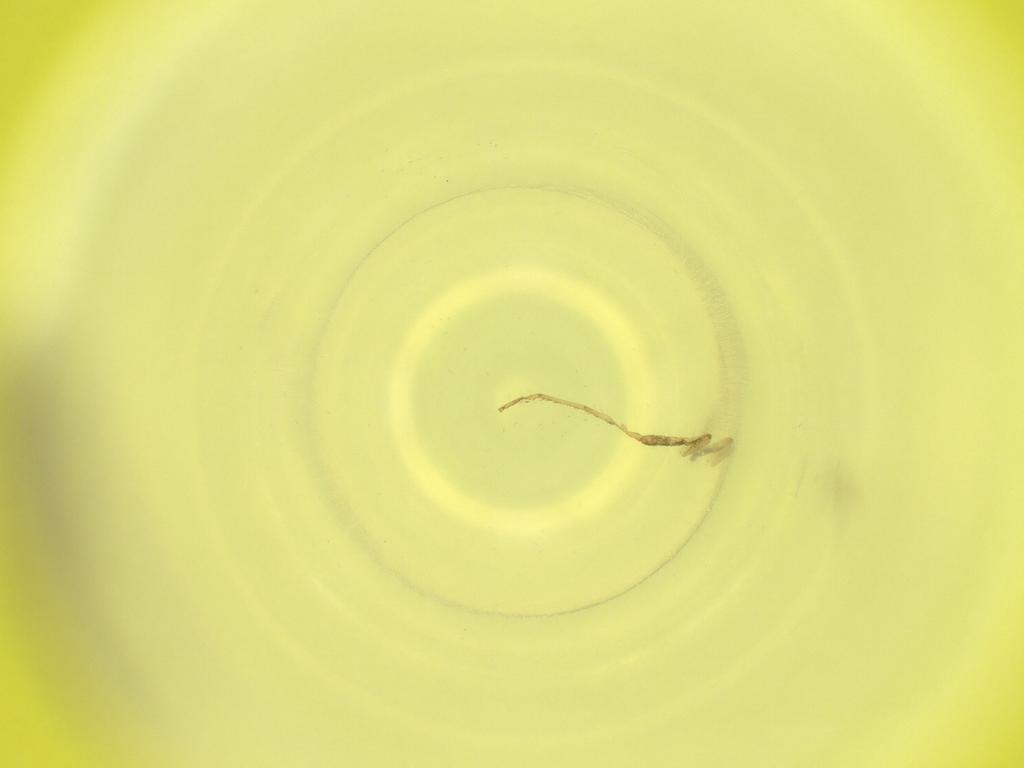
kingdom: Animalia
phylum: Arthropoda
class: Insecta
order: Diptera
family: Cecidomyiidae
